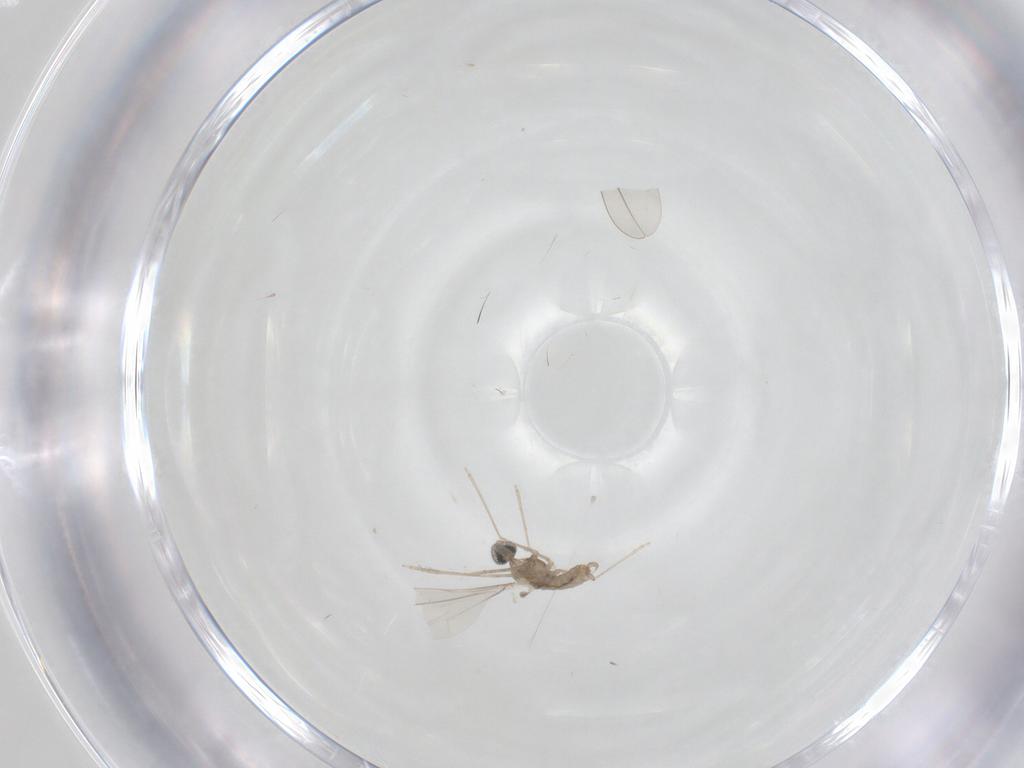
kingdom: Animalia
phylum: Arthropoda
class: Insecta
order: Diptera
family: Cecidomyiidae
